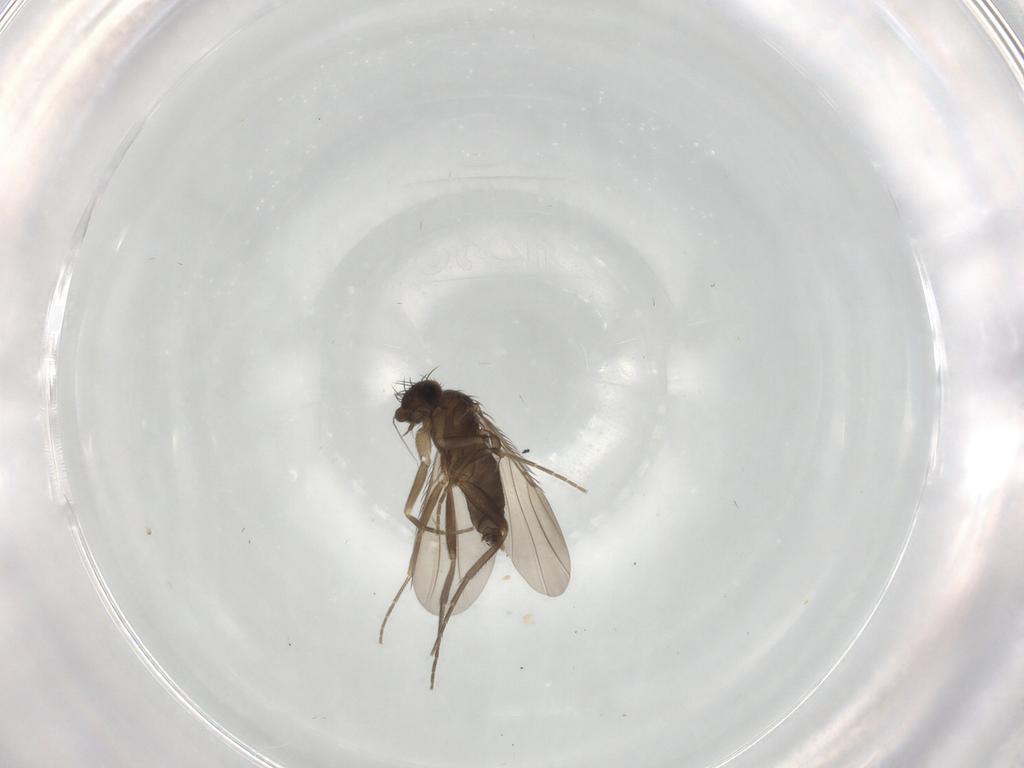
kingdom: Animalia
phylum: Arthropoda
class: Insecta
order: Diptera
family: Phoridae
